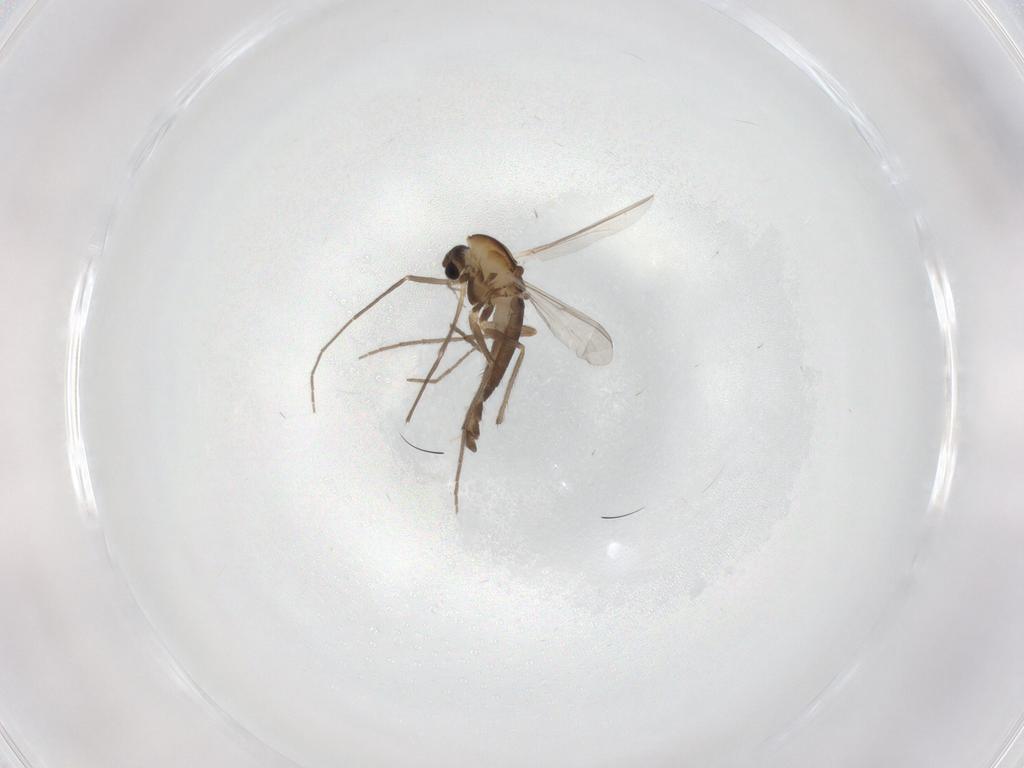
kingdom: Animalia
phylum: Arthropoda
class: Insecta
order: Diptera
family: Chironomidae
